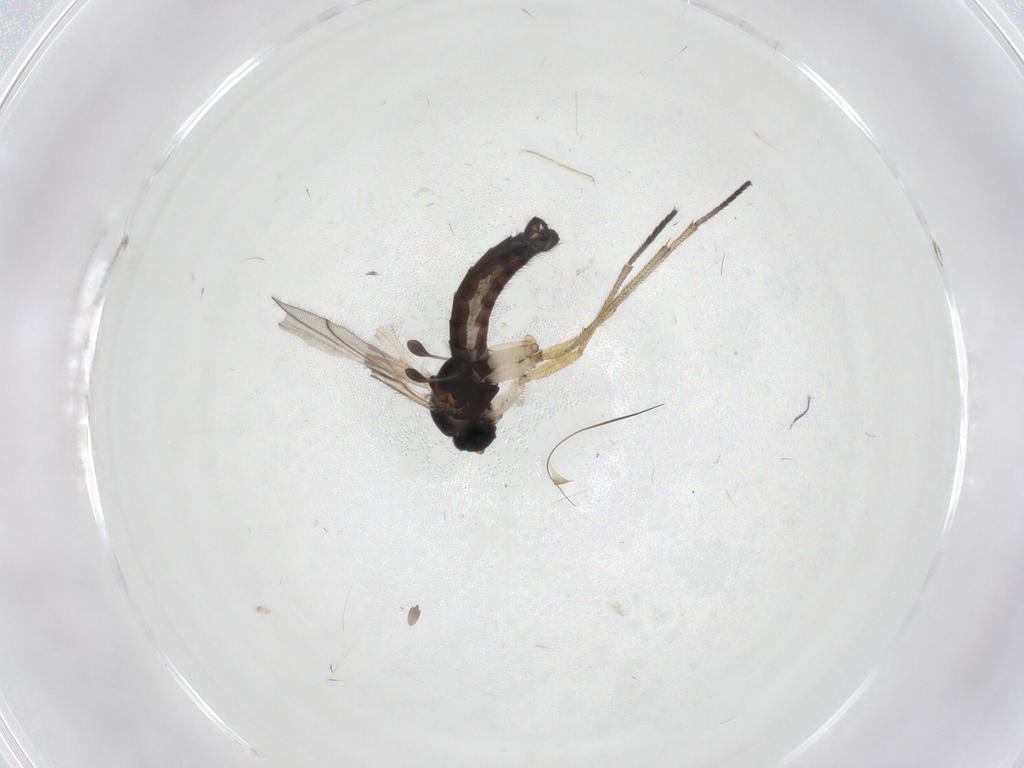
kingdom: Animalia
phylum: Arthropoda
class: Insecta
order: Diptera
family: Sciaridae
